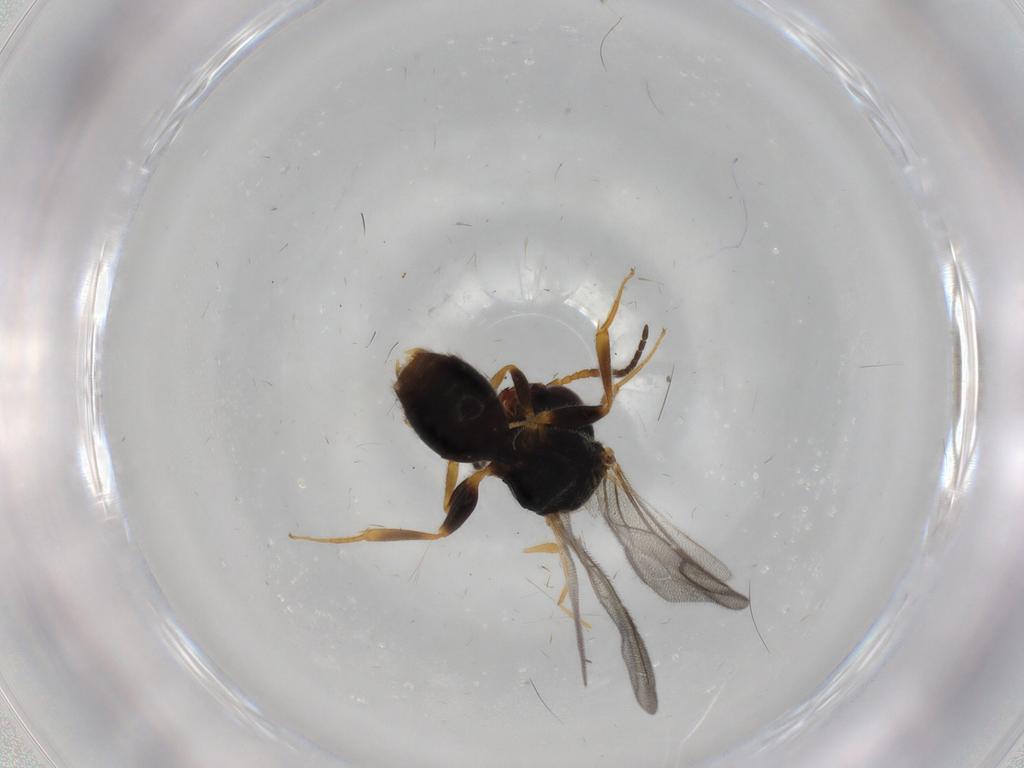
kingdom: Animalia
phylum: Arthropoda
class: Insecta
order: Hymenoptera
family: Bethylidae
